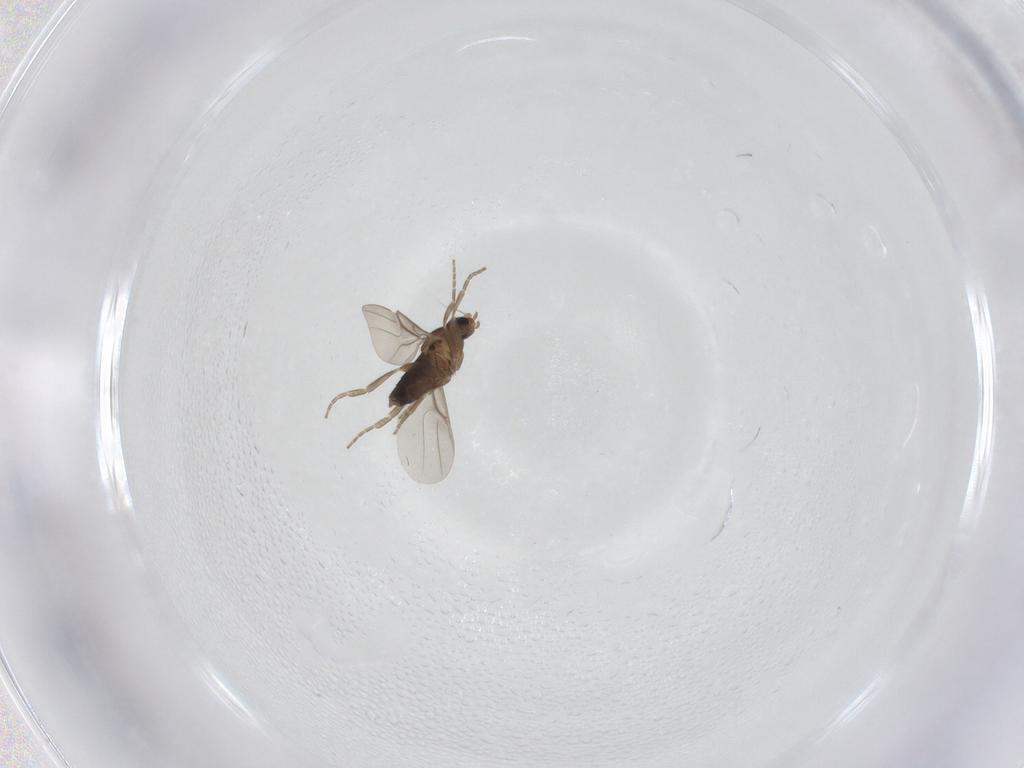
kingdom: Animalia
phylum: Arthropoda
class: Insecta
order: Diptera
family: Phoridae
